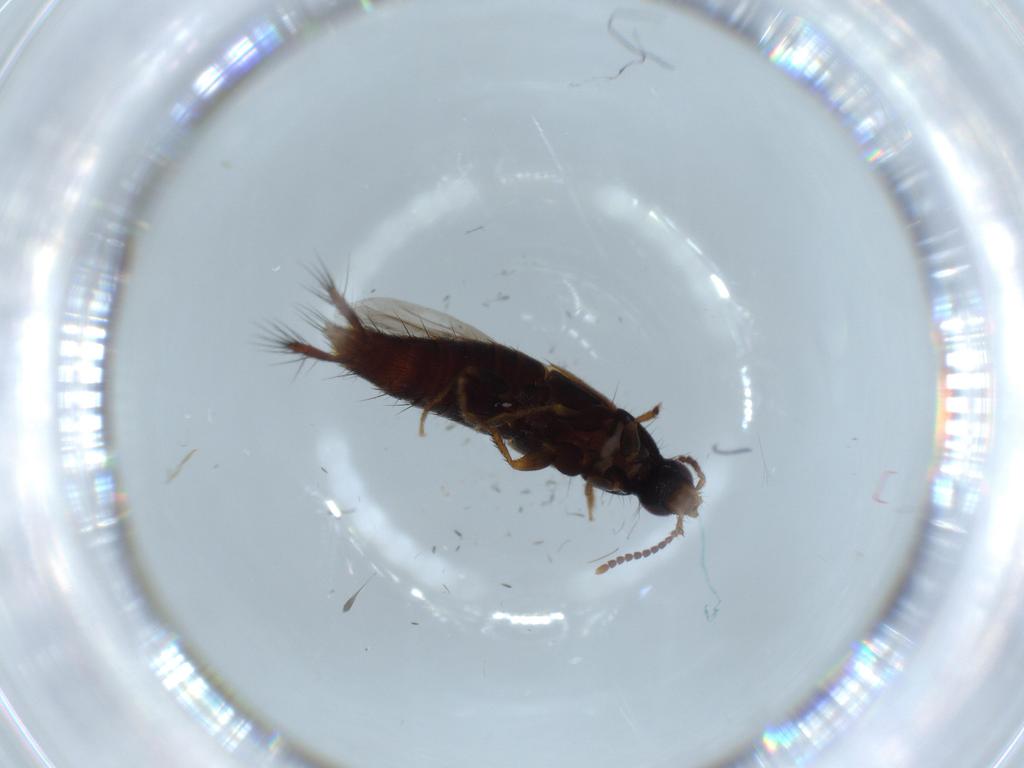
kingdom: Animalia
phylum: Arthropoda
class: Insecta
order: Coleoptera
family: Staphylinidae
